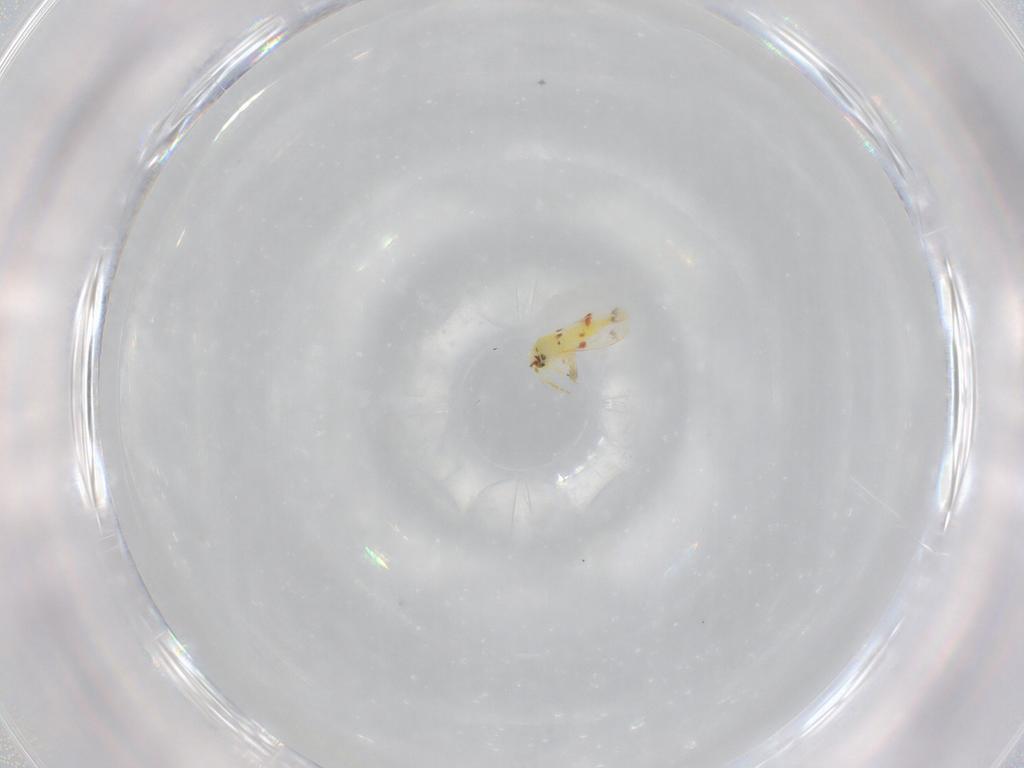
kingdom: Animalia
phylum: Arthropoda
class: Insecta
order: Hemiptera
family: Aleyrodidae
